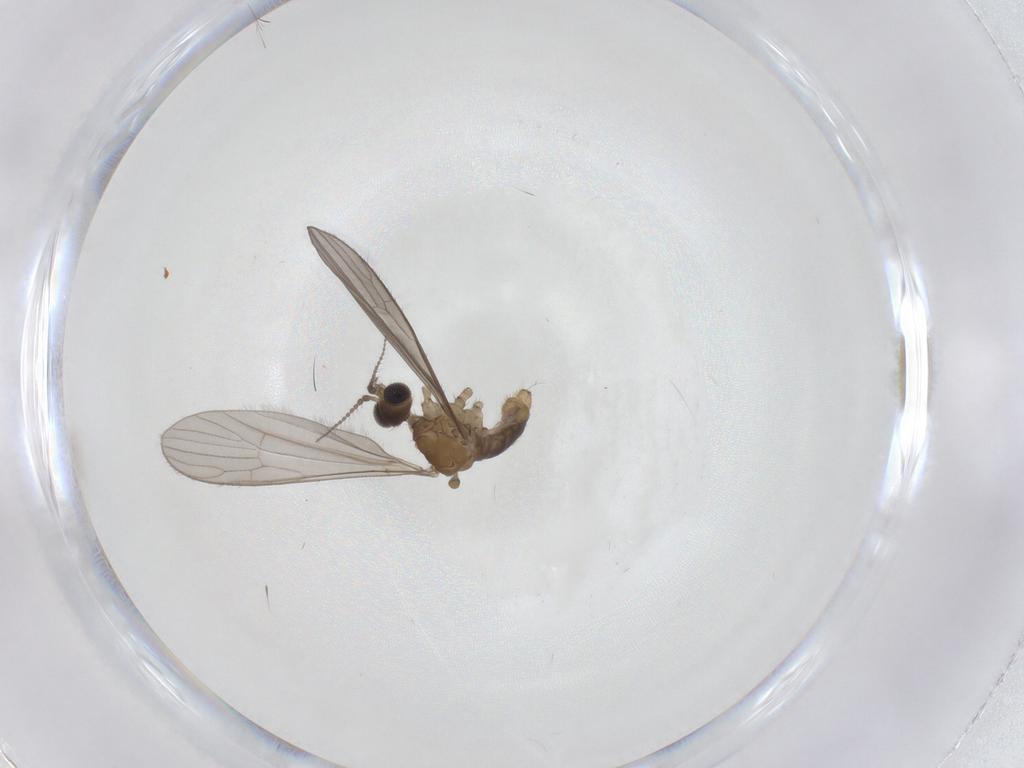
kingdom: Animalia
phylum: Arthropoda
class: Insecta
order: Diptera
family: Limoniidae
